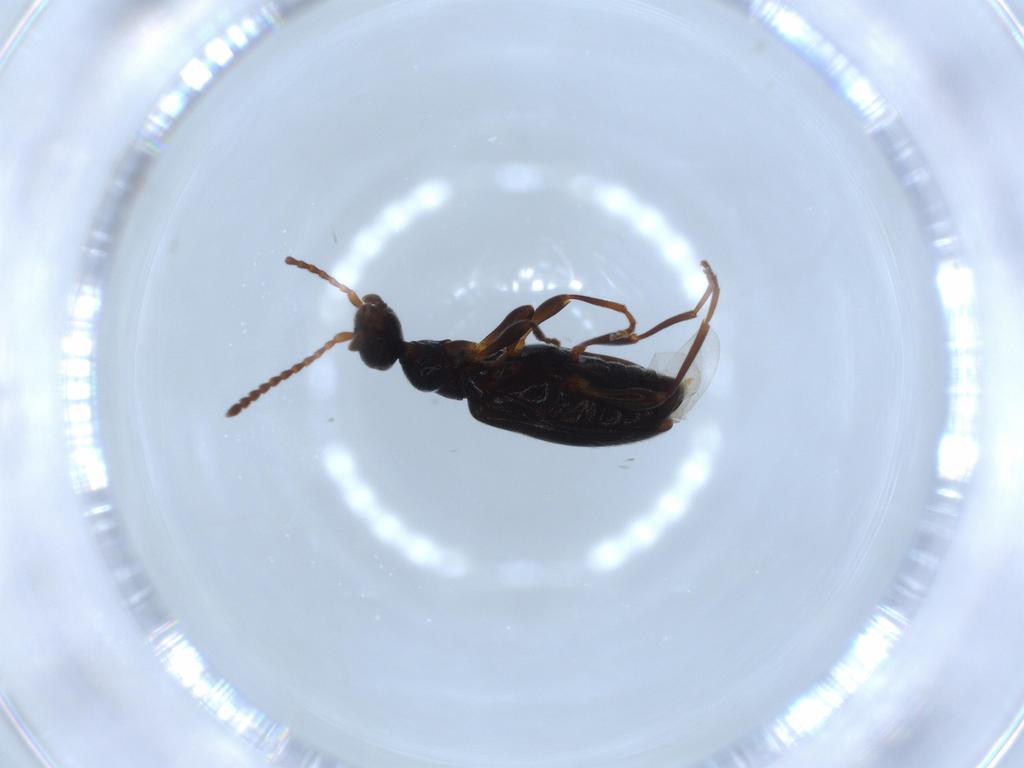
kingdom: Animalia
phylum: Arthropoda
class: Insecta
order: Coleoptera
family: Anthicidae
